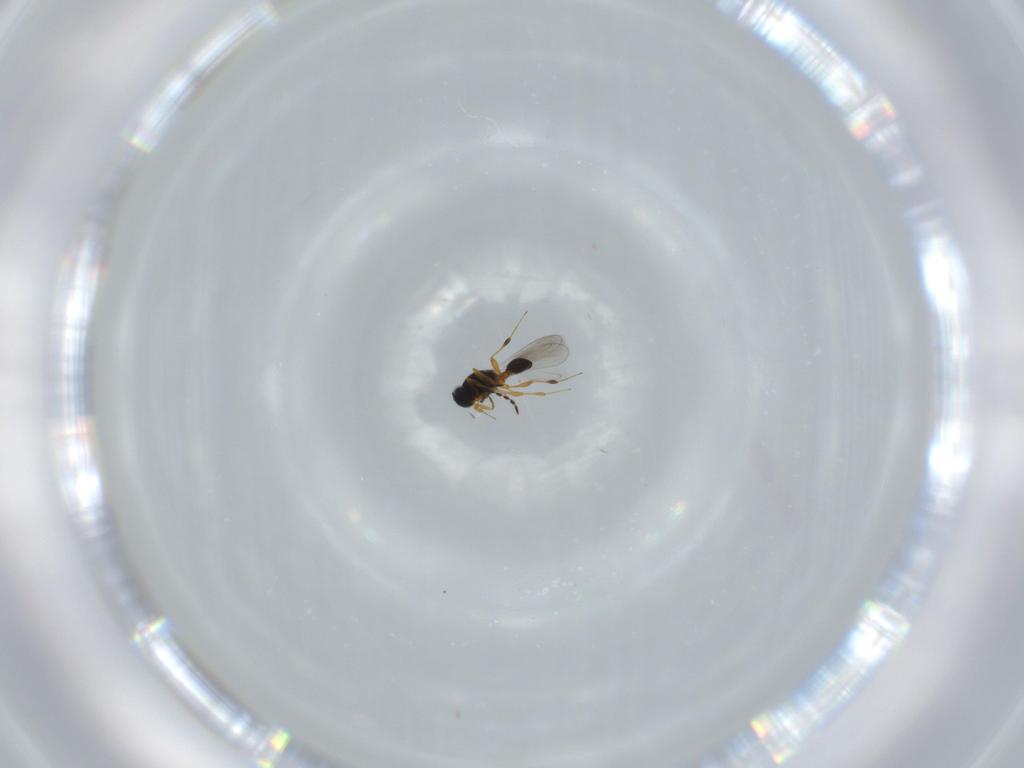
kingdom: Animalia
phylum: Arthropoda
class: Insecta
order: Hymenoptera
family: Platygastridae
